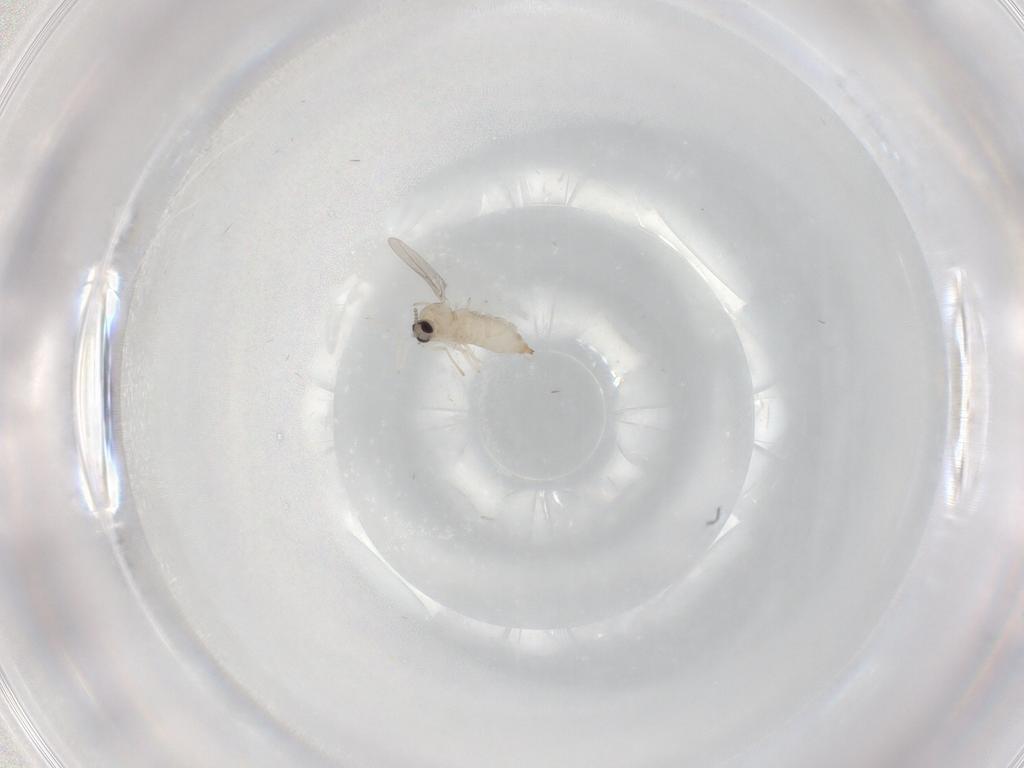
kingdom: Animalia
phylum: Arthropoda
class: Insecta
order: Diptera
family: Cecidomyiidae
